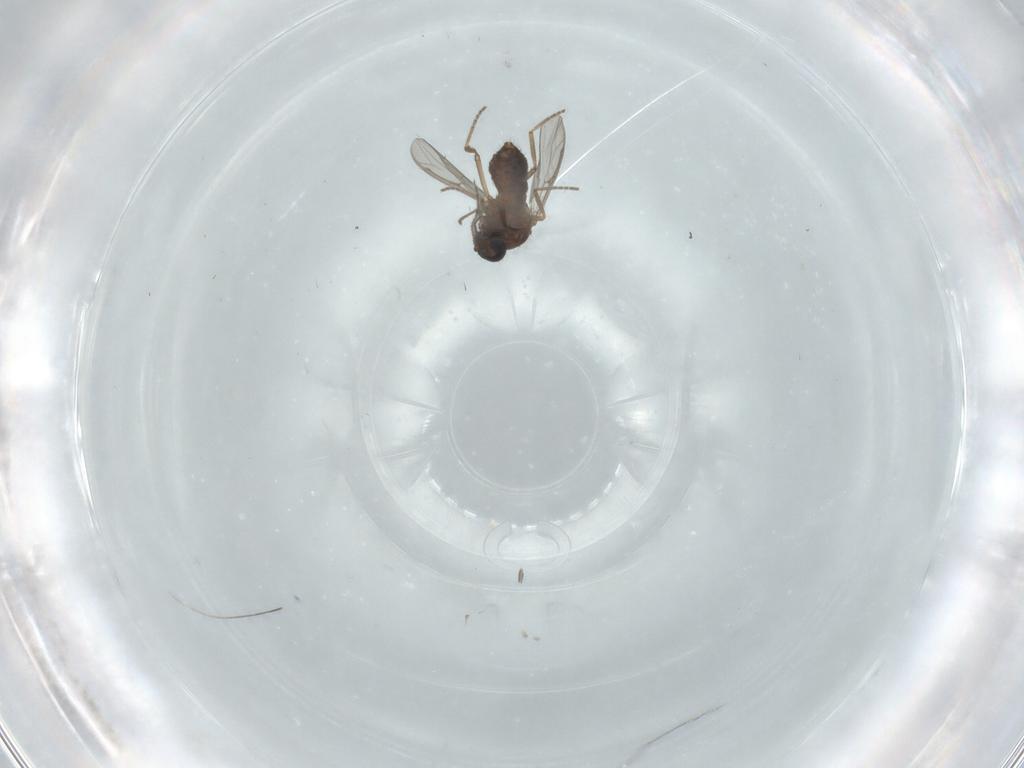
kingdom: Animalia
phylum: Arthropoda
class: Insecta
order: Diptera
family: Ceratopogonidae
